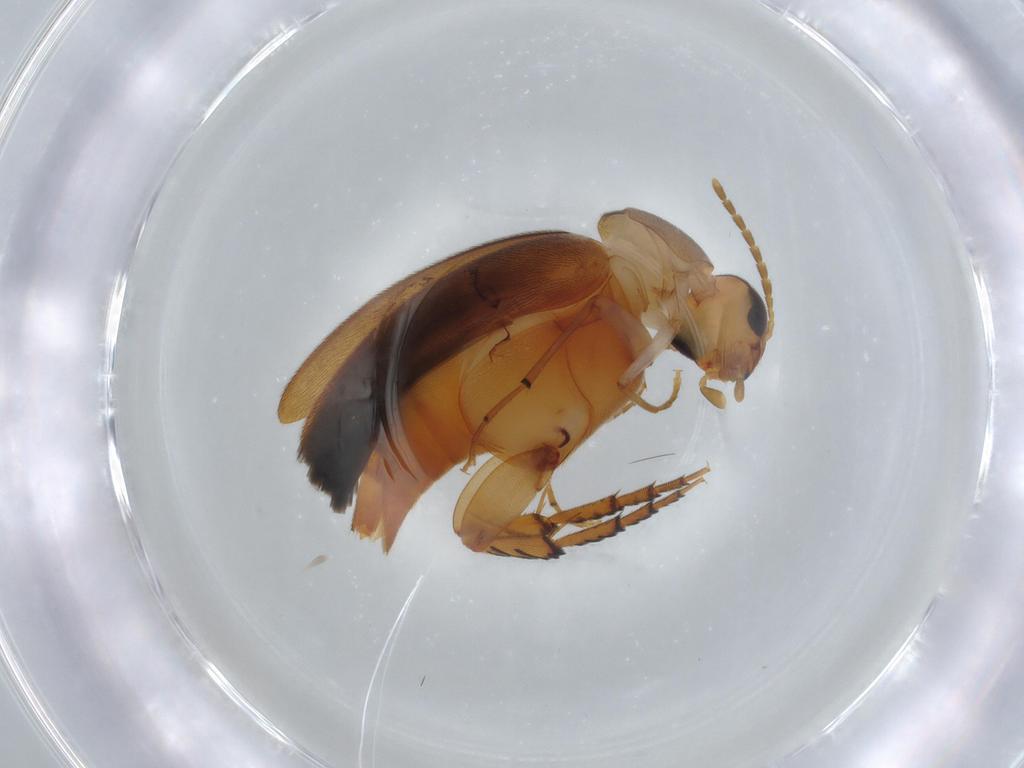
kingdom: Animalia
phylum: Arthropoda
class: Insecta
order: Coleoptera
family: Mordellidae
